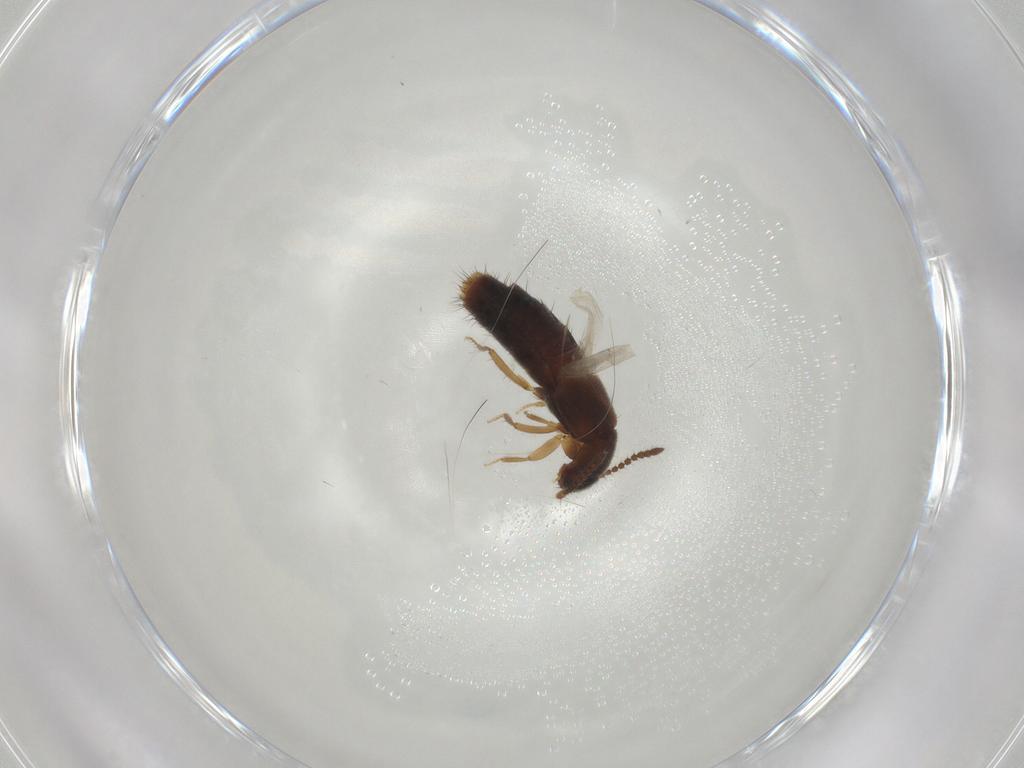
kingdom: Animalia
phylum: Arthropoda
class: Insecta
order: Coleoptera
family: Staphylinidae
